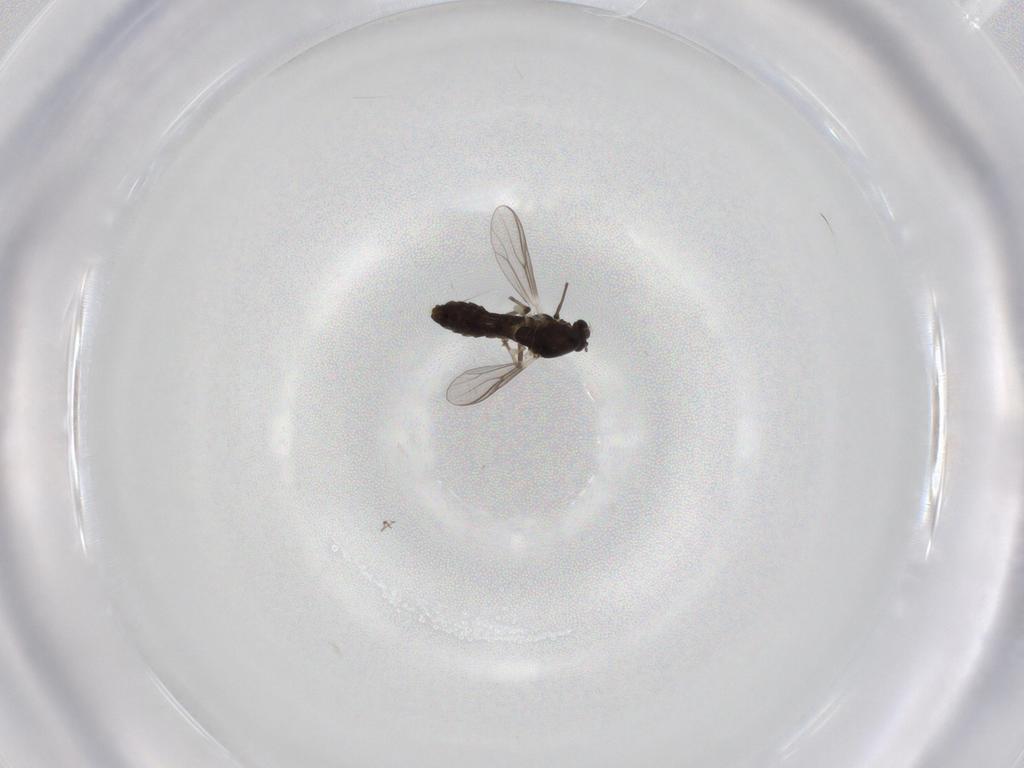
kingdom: Animalia
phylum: Arthropoda
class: Insecta
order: Diptera
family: Chironomidae
